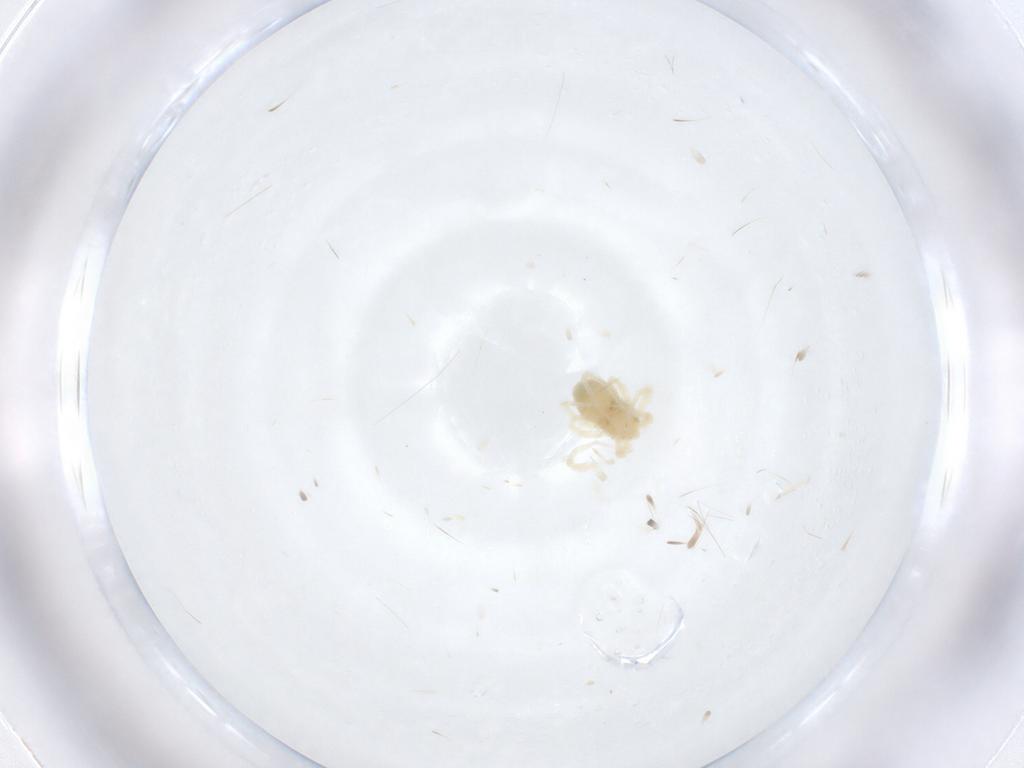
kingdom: Animalia
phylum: Arthropoda
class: Arachnida
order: Trombidiformes
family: Anystidae
